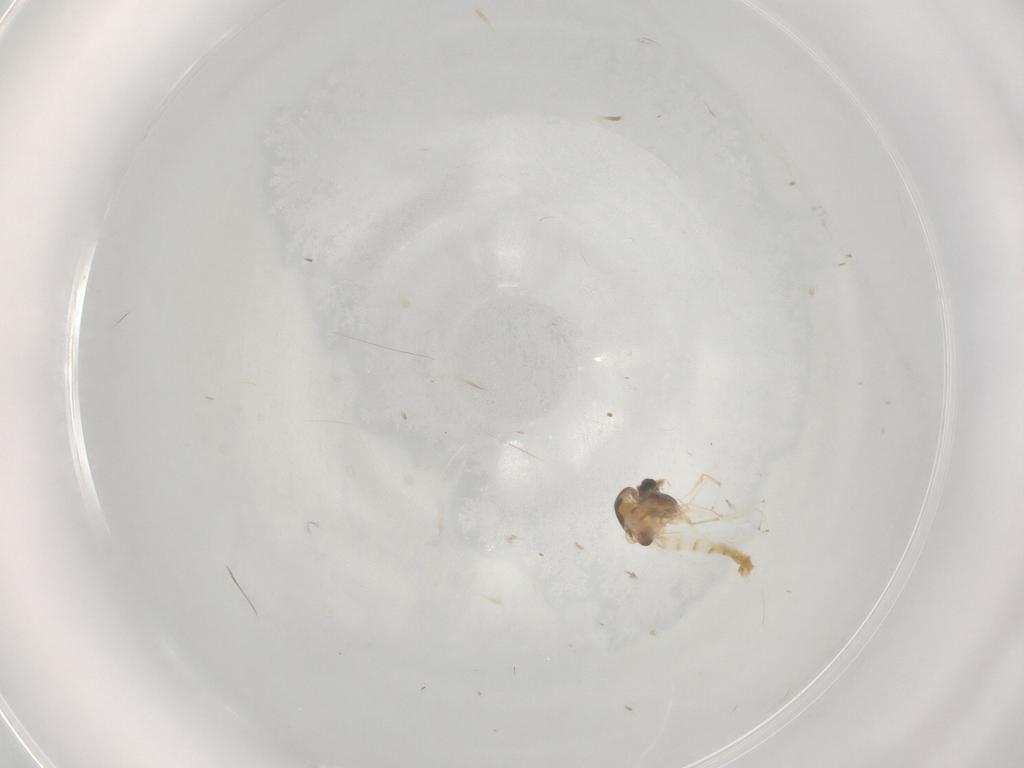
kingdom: Animalia
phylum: Arthropoda
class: Insecta
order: Diptera
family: Chironomidae
